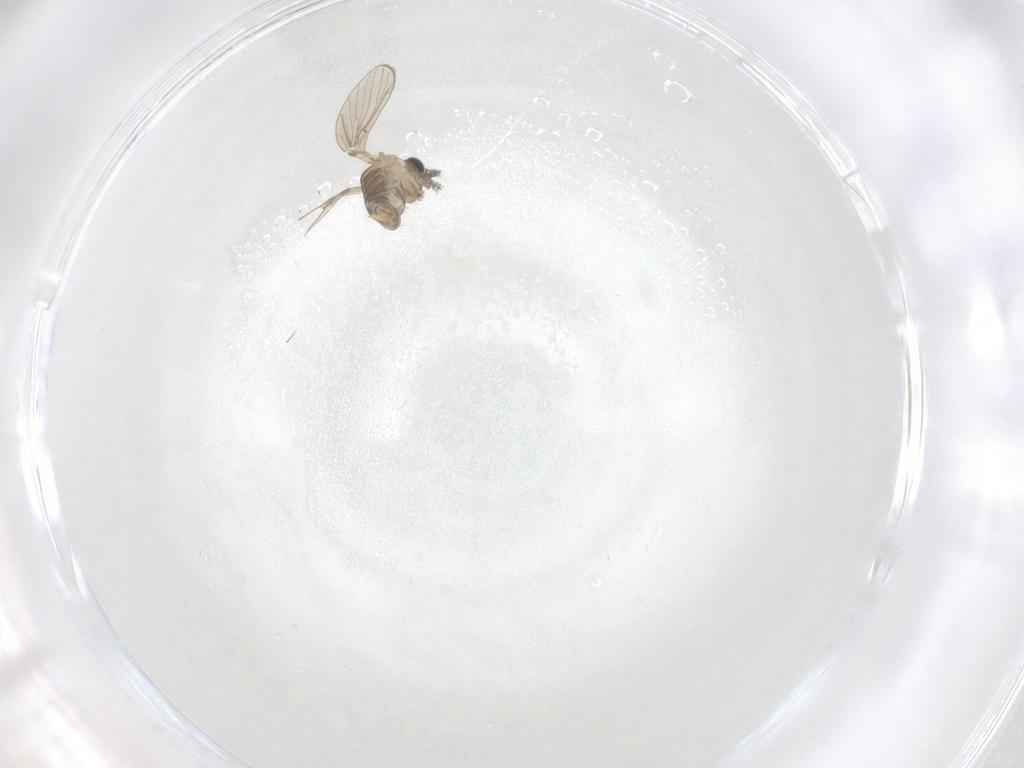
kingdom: Animalia
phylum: Arthropoda
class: Insecta
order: Diptera
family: Psychodidae
